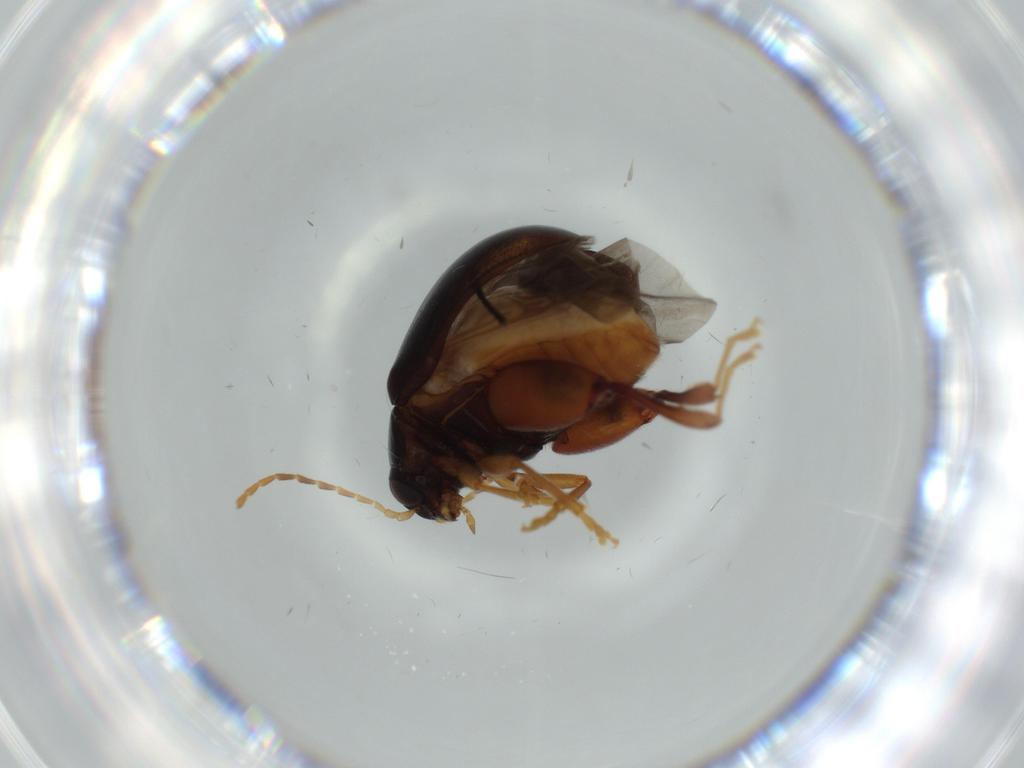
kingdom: Animalia
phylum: Arthropoda
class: Insecta
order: Coleoptera
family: Chrysomelidae
